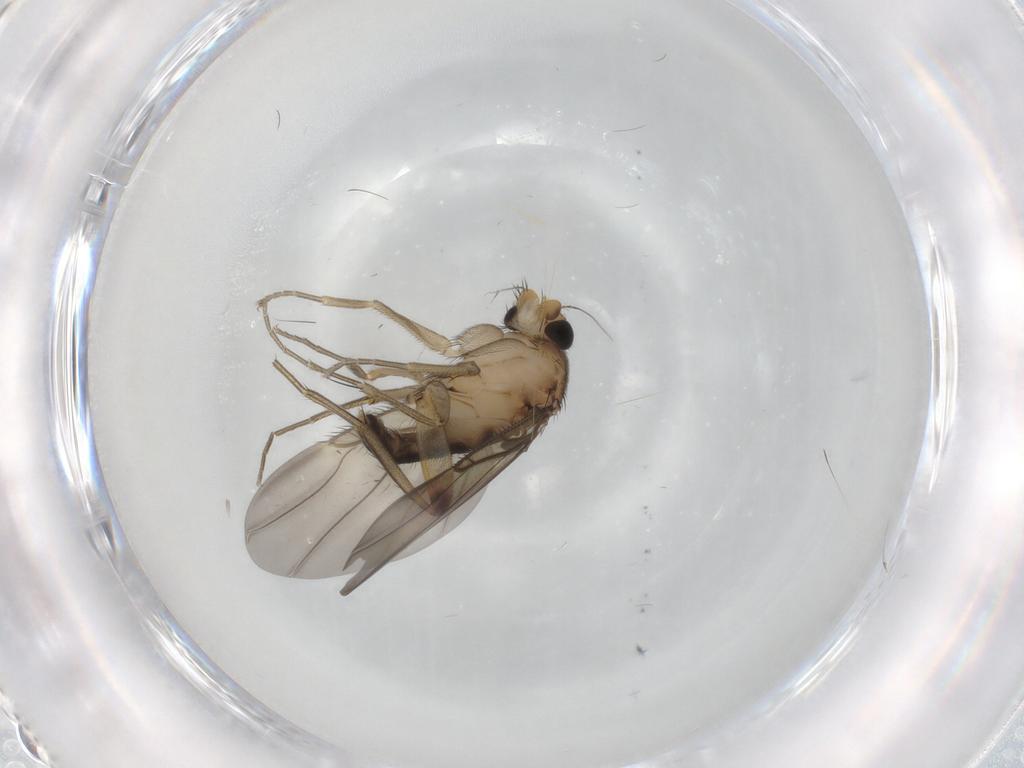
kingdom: Animalia
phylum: Arthropoda
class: Insecta
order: Diptera
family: Phoridae
